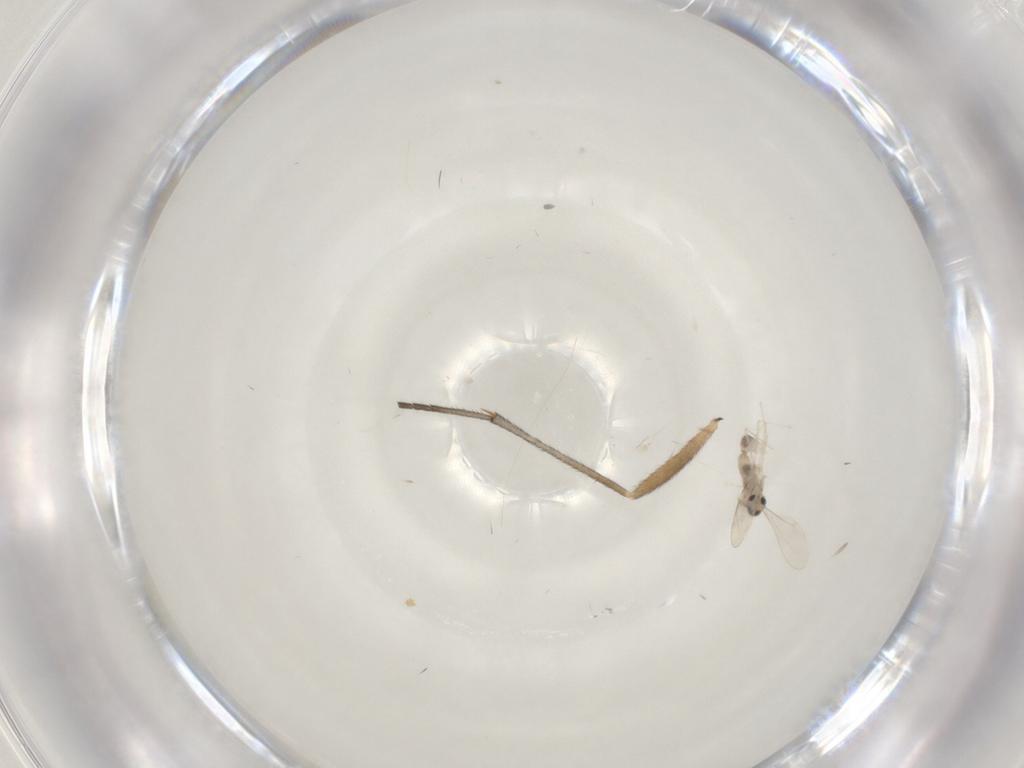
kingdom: Animalia
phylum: Arthropoda
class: Insecta
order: Diptera
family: Cecidomyiidae
